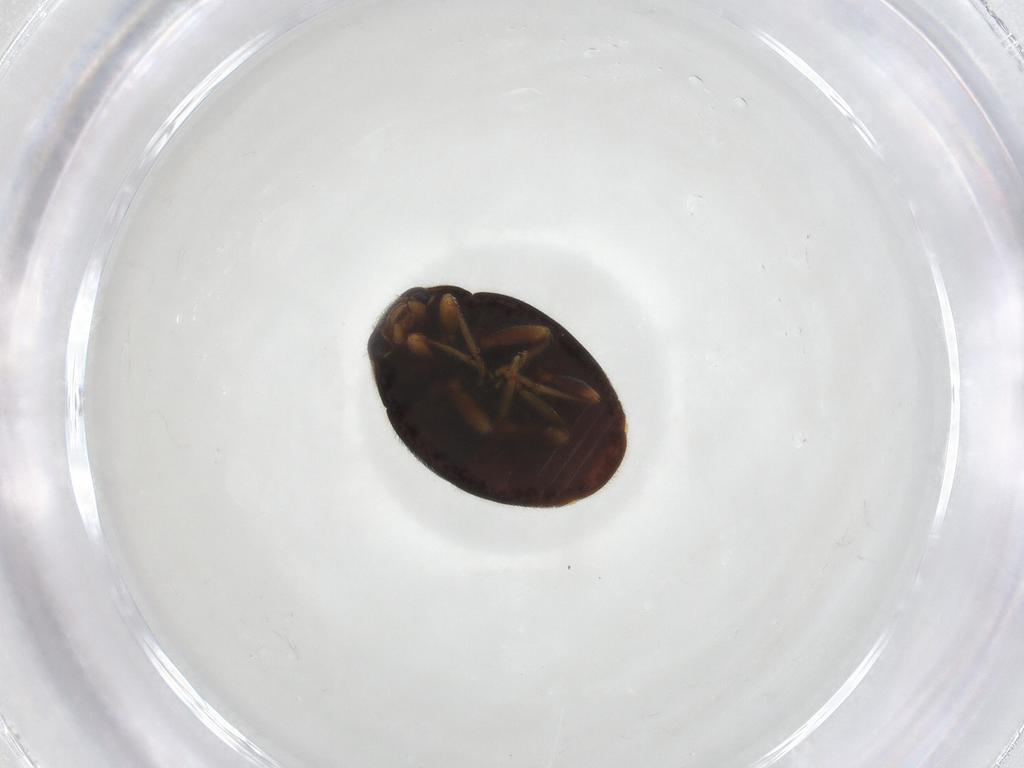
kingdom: Animalia
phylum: Arthropoda
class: Insecta
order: Coleoptera
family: Coccinellidae
